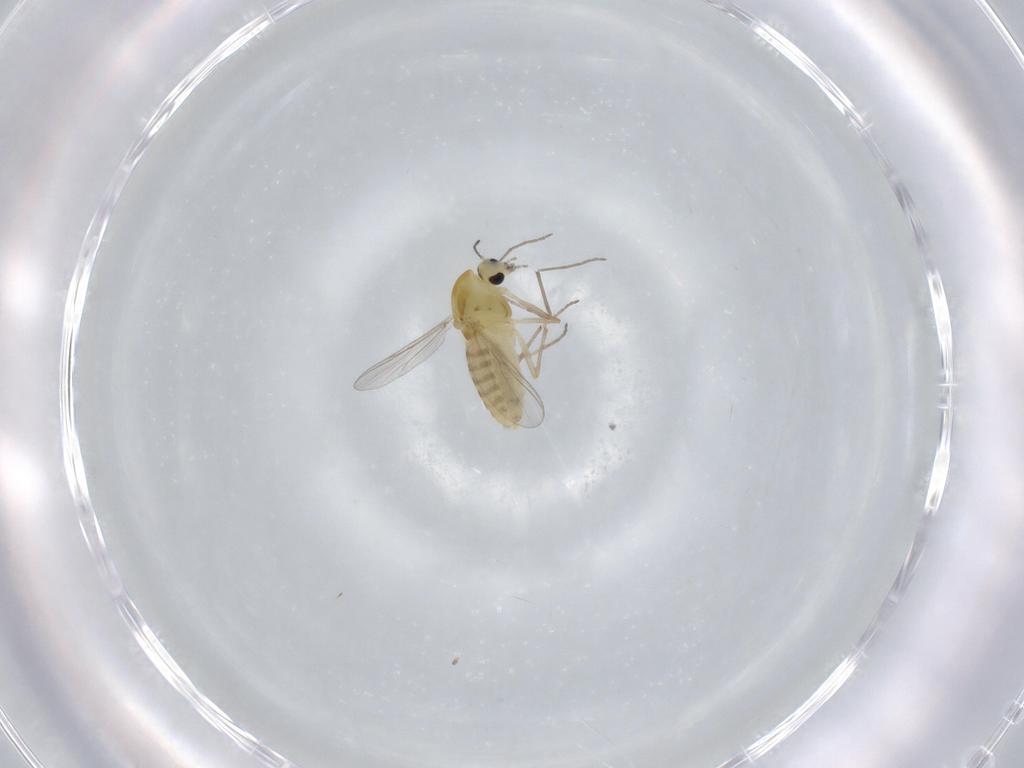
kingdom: Animalia
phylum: Arthropoda
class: Insecta
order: Diptera
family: Chironomidae
